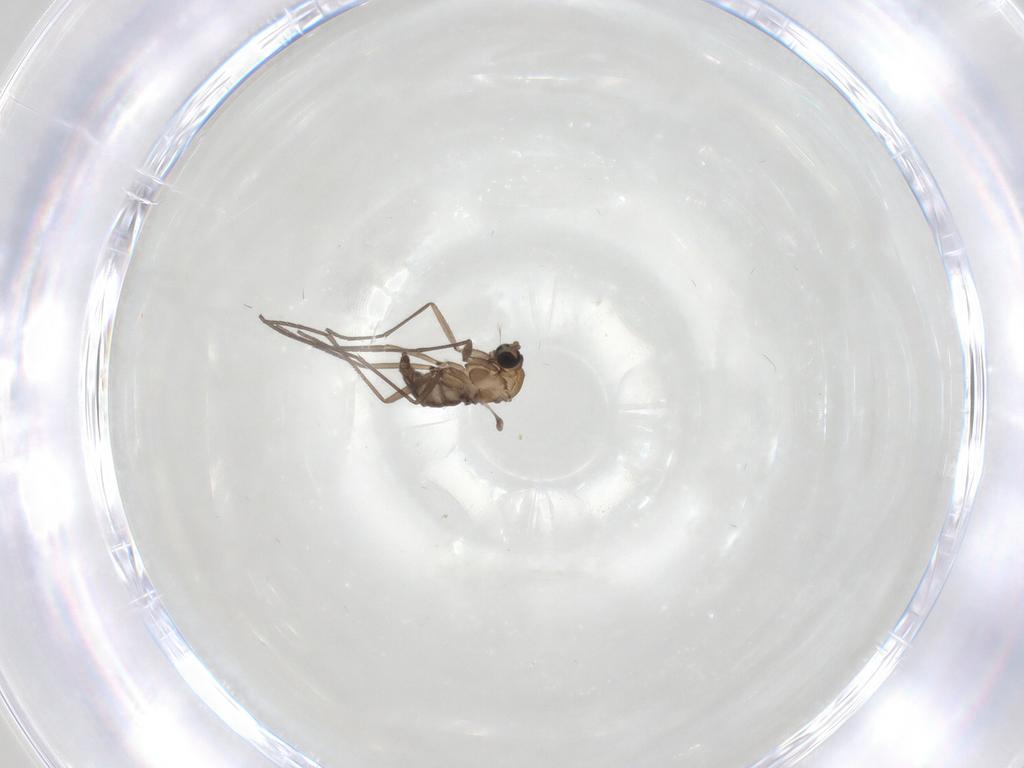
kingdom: Animalia
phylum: Arthropoda
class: Insecta
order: Diptera
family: Sciaridae
